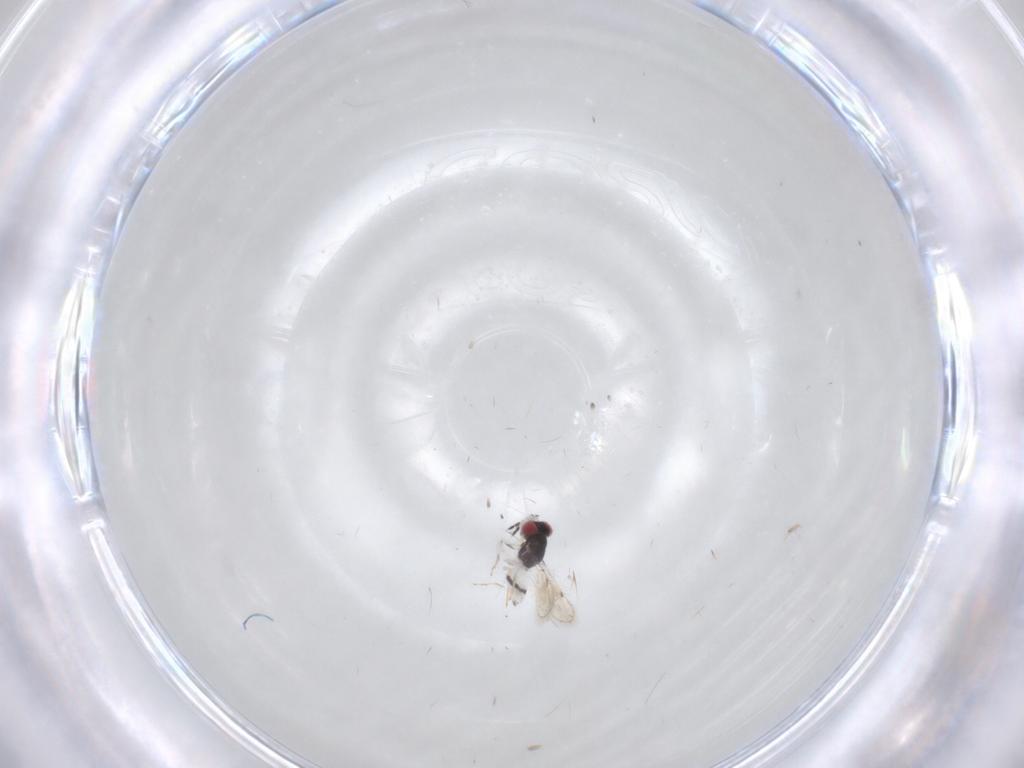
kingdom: Animalia
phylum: Arthropoda
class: Insecta
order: Hymenoptera
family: Eulophidae
